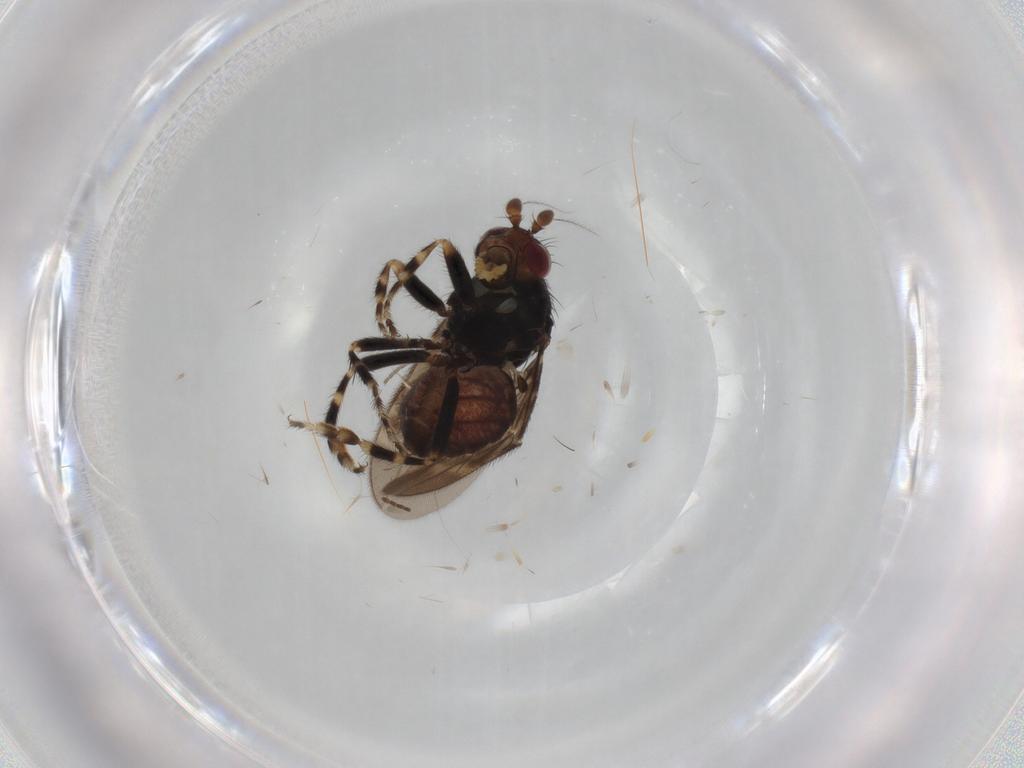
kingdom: Animalia
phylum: Arthropoda
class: Insecta
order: Diptera
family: Sphaeroceridae
